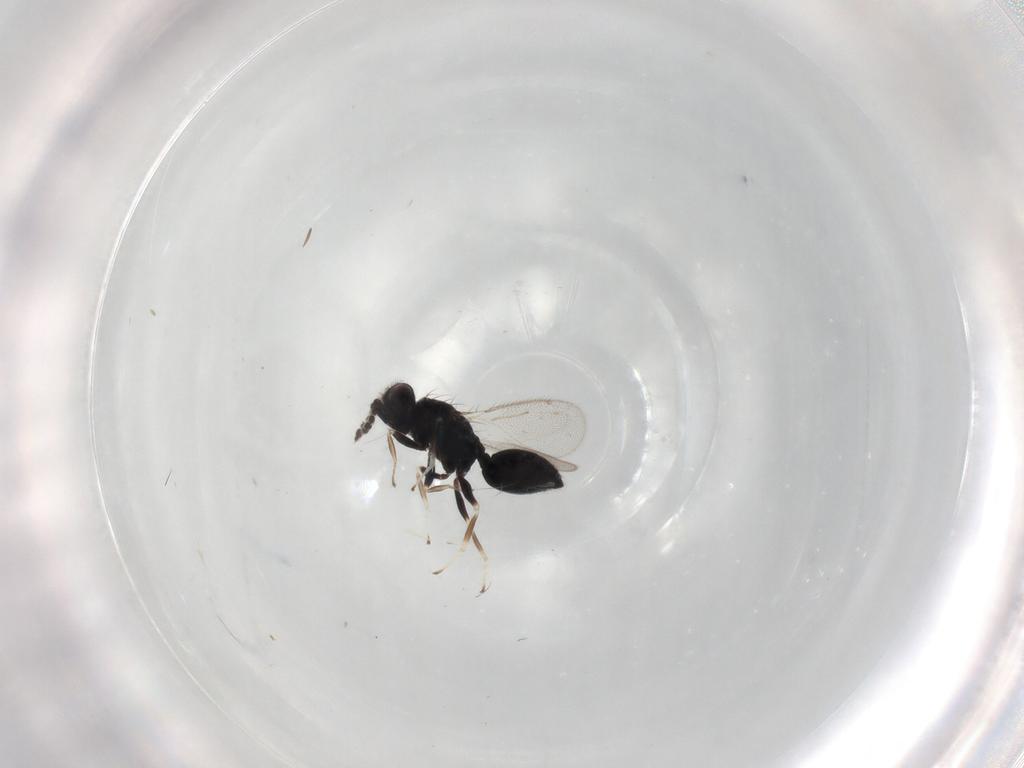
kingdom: Animalia
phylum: Arthropoda
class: Insecta
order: Hymenoptera
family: Eulophidae
